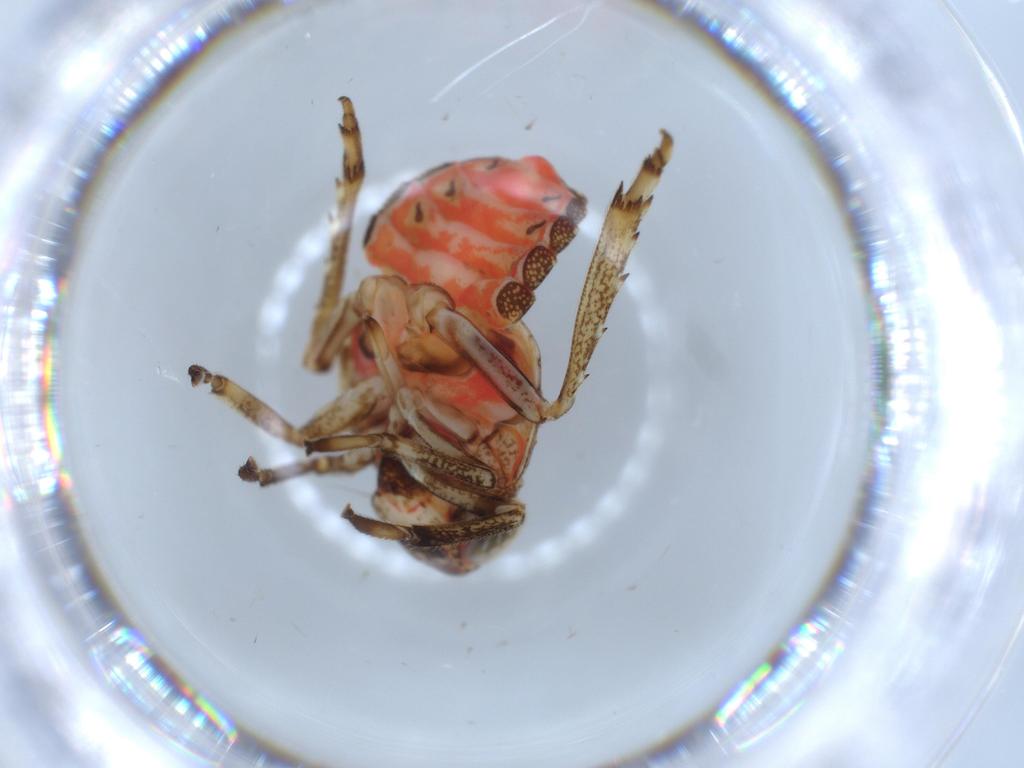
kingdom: Animalia
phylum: Arthropoda
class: Insecta
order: Hemiptera
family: Issidae
